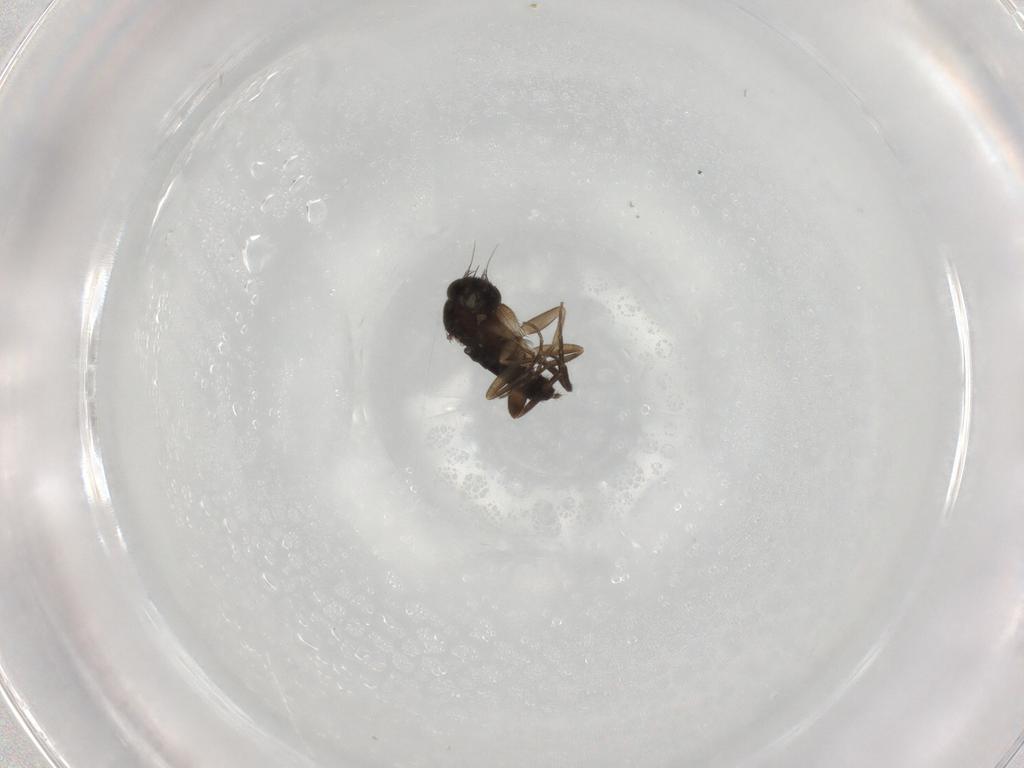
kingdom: Animalia
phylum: Arthropoda
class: Insecta
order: Diptera
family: Phoridae
